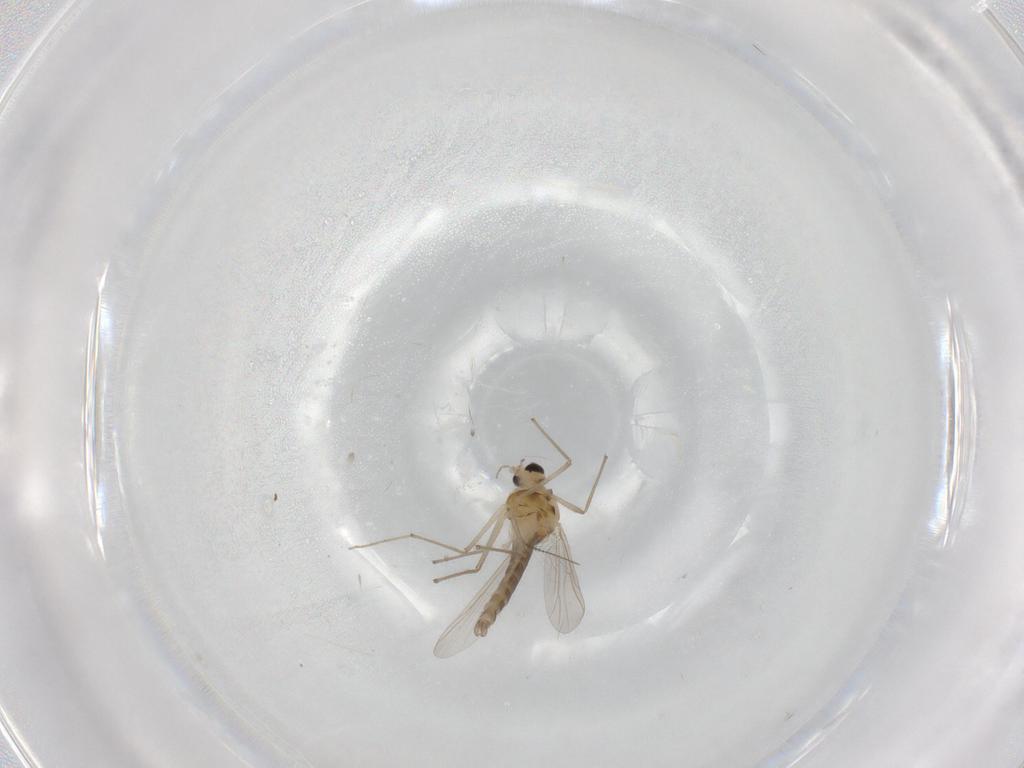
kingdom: Animalia
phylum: Arthropoda
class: Insecta
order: Diptera
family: Chironomidae
